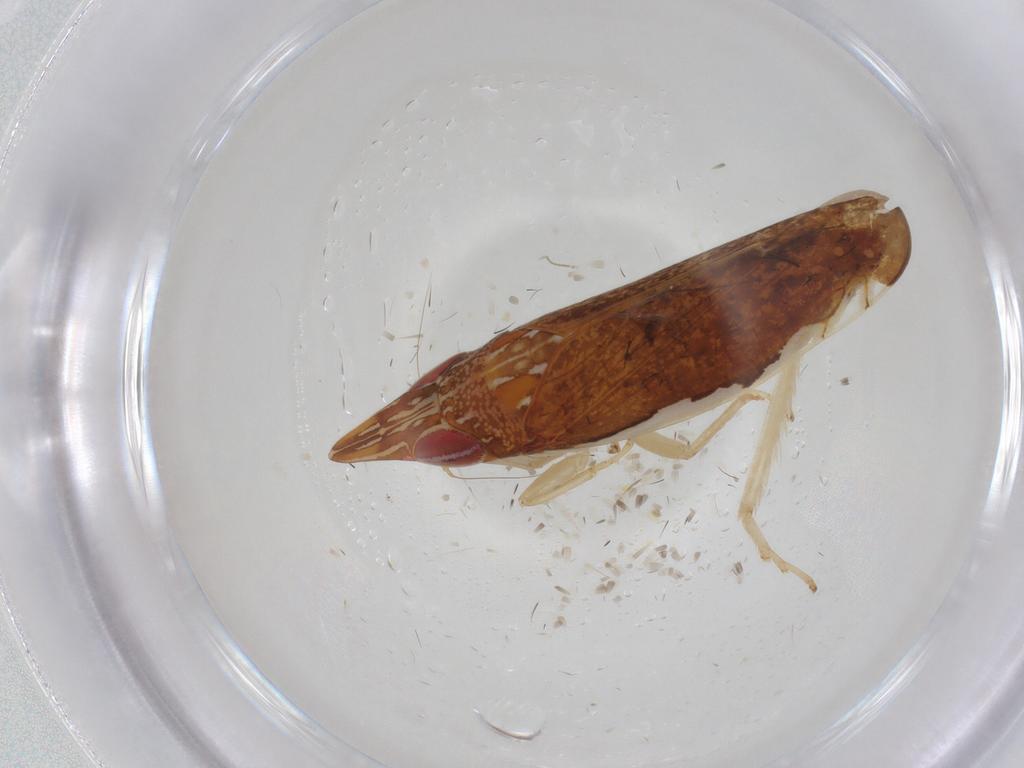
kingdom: Animalia
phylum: Arthropoda
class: Insecta
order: Hemiptera
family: Cicadellidae
